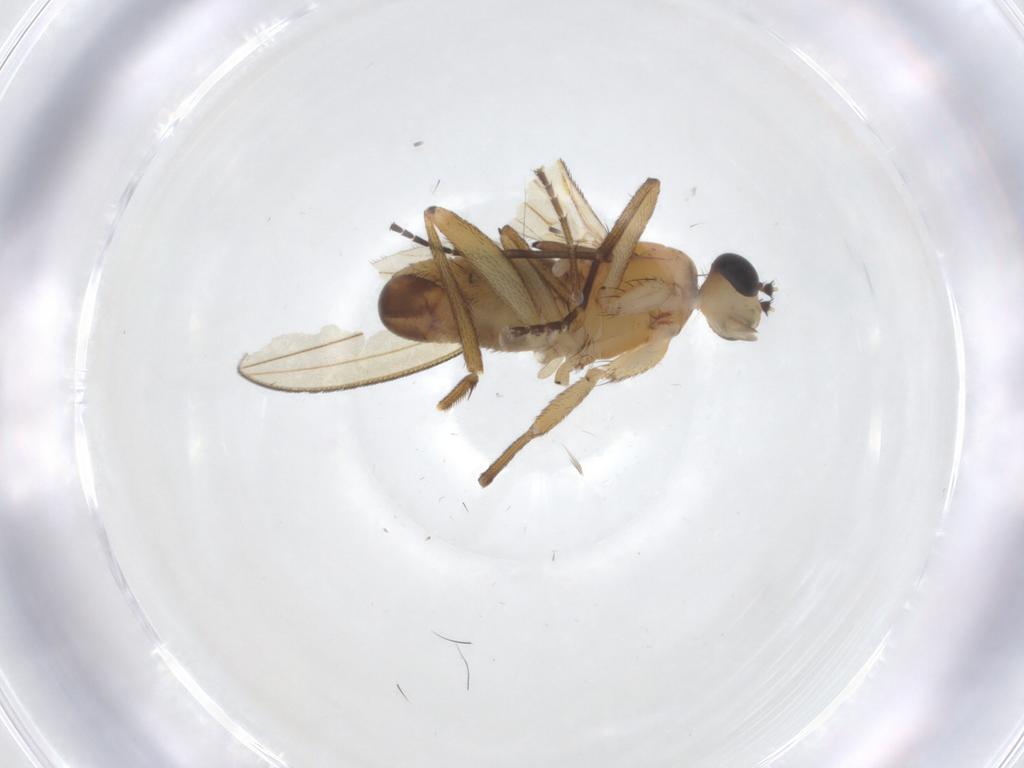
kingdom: Animalia
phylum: Arthropoda
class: Insecta
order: Diptera
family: Lonchopteridae
